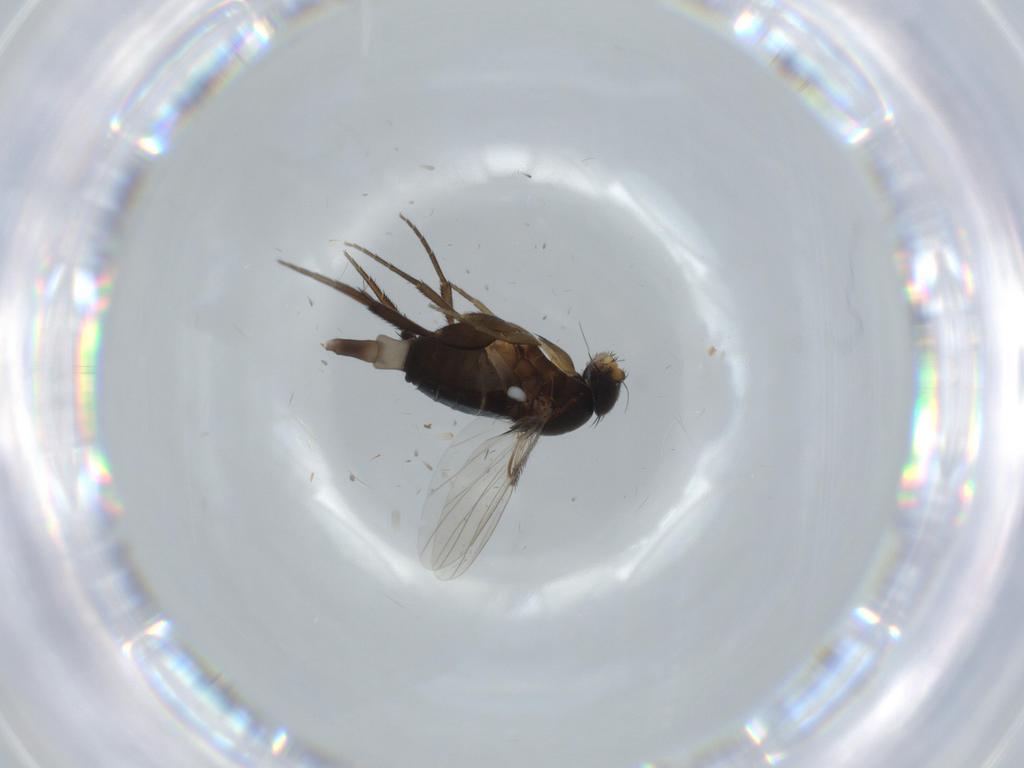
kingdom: Animalia
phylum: Arthropoda
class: Insecta
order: Diptera
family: Phoridae
